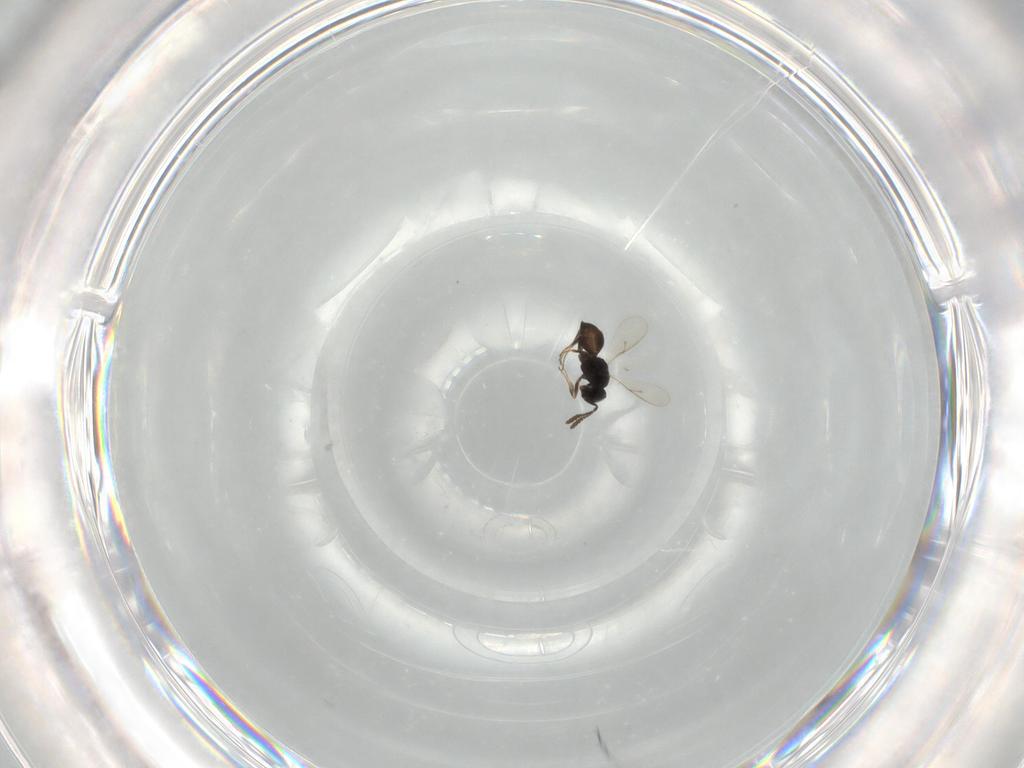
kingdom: Animalia
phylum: Arthropoda
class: Insecta
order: Hymenoptera
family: Scelionidae
